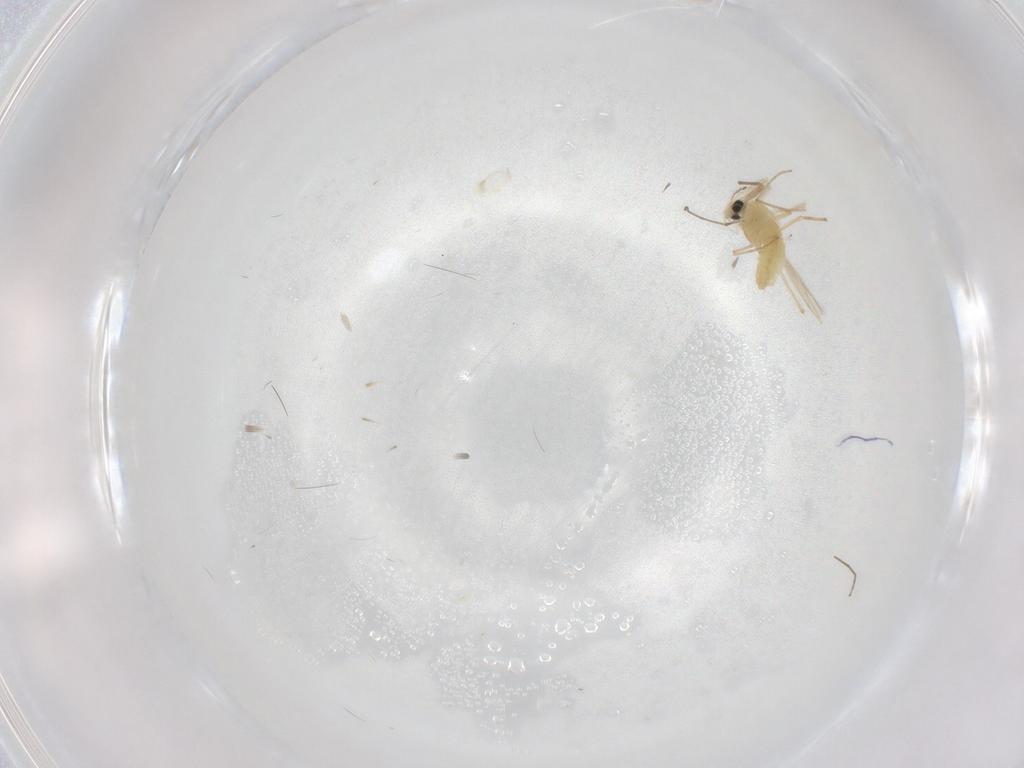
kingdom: Animalia
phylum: Arthropoda
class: Insecta
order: Diptera
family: Chironomidae
